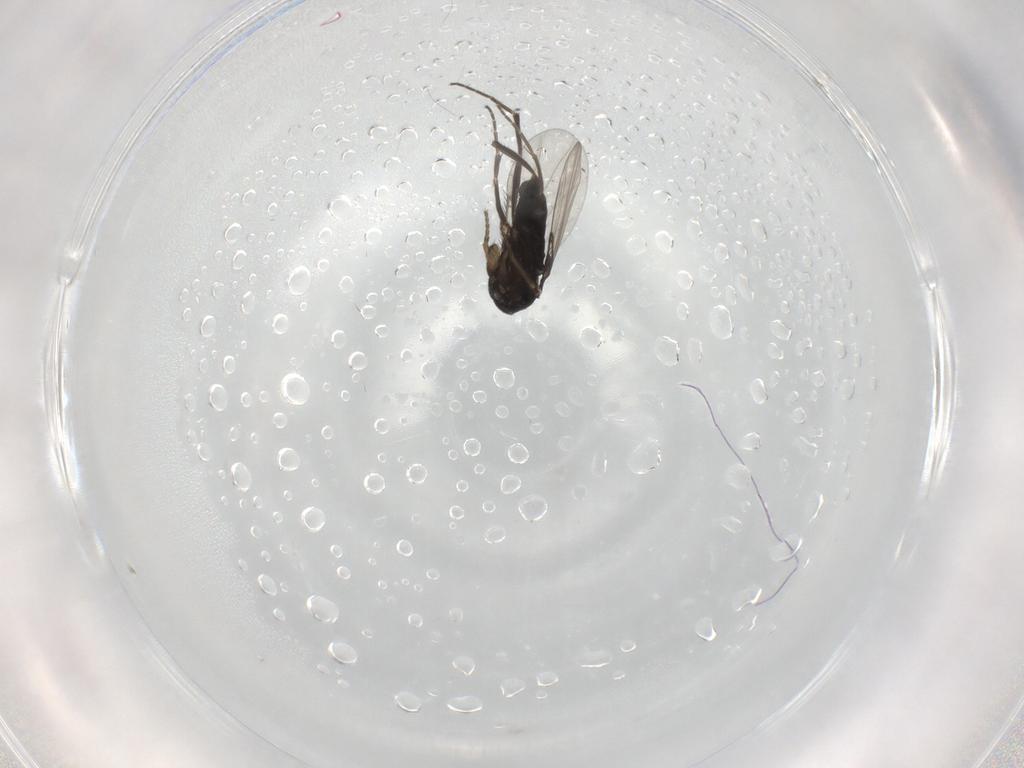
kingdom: Animalia
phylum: Arthropoda
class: Insecta
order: Diptera
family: Phoridae
